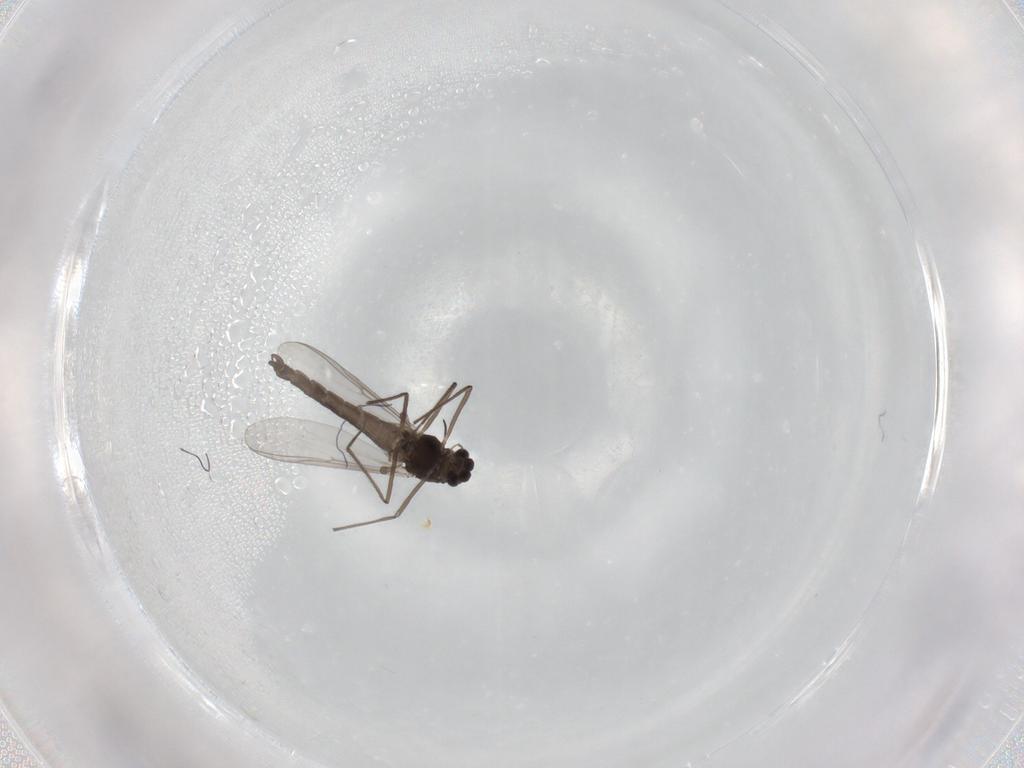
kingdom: Animalia
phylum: Arthropoda
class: Insecta
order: Diptera
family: Chironomidae
